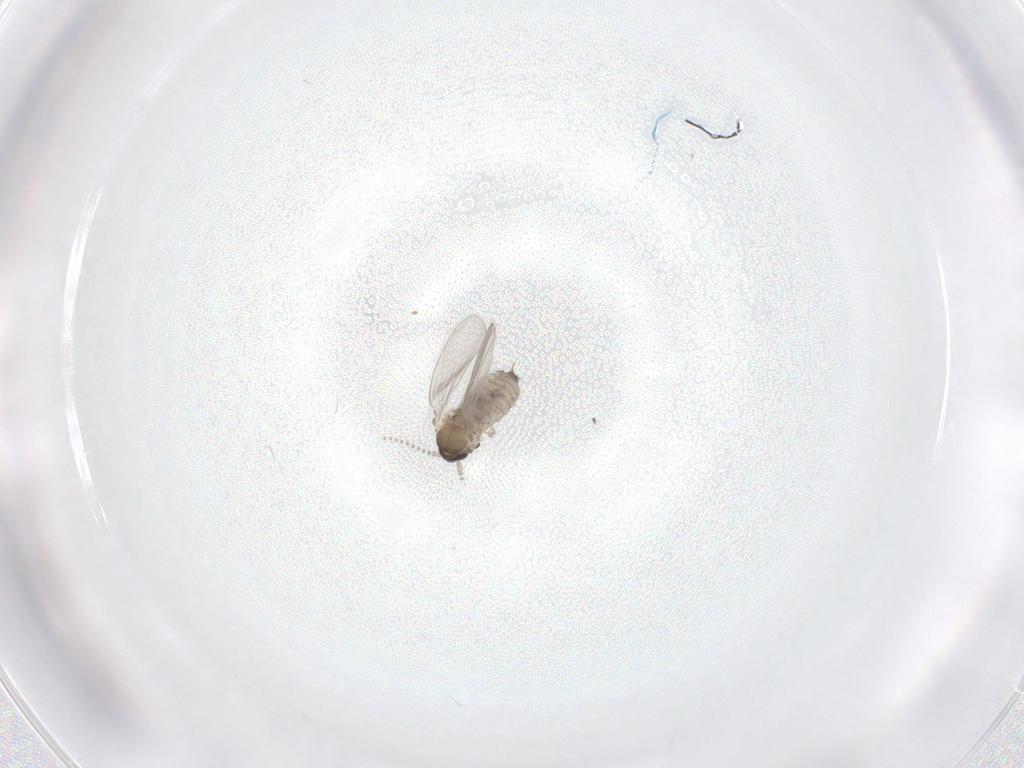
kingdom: Animalia
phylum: Arthropoda
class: Insecta
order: Diptera
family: Psychodidae
